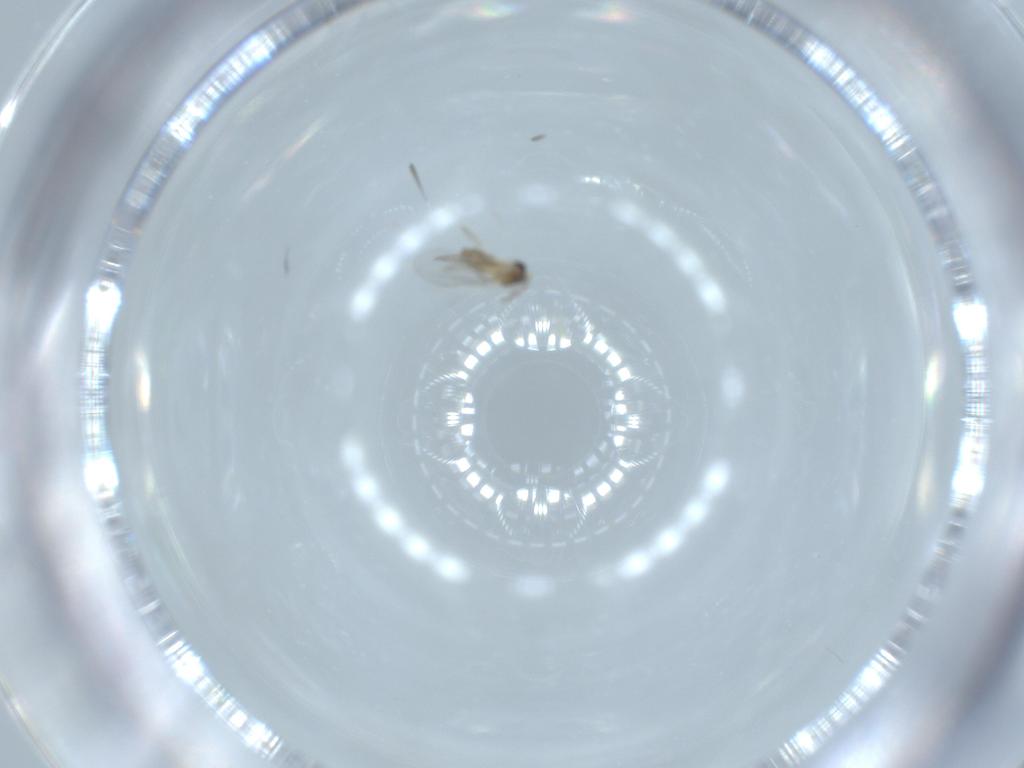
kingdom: Animalia
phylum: Arthropoda
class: Insecta
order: Diptera
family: Cecidomyiidae
